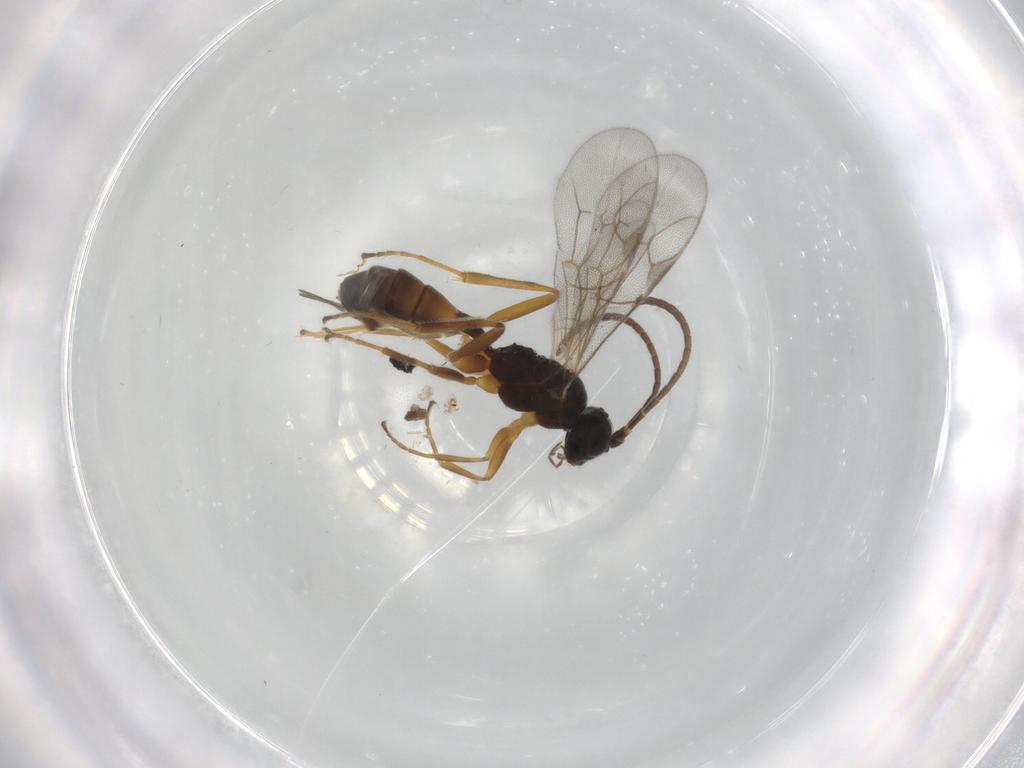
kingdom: Animalia
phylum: Arthropoda
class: Insecta
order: Hymenoptera
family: Ichneumonidae
